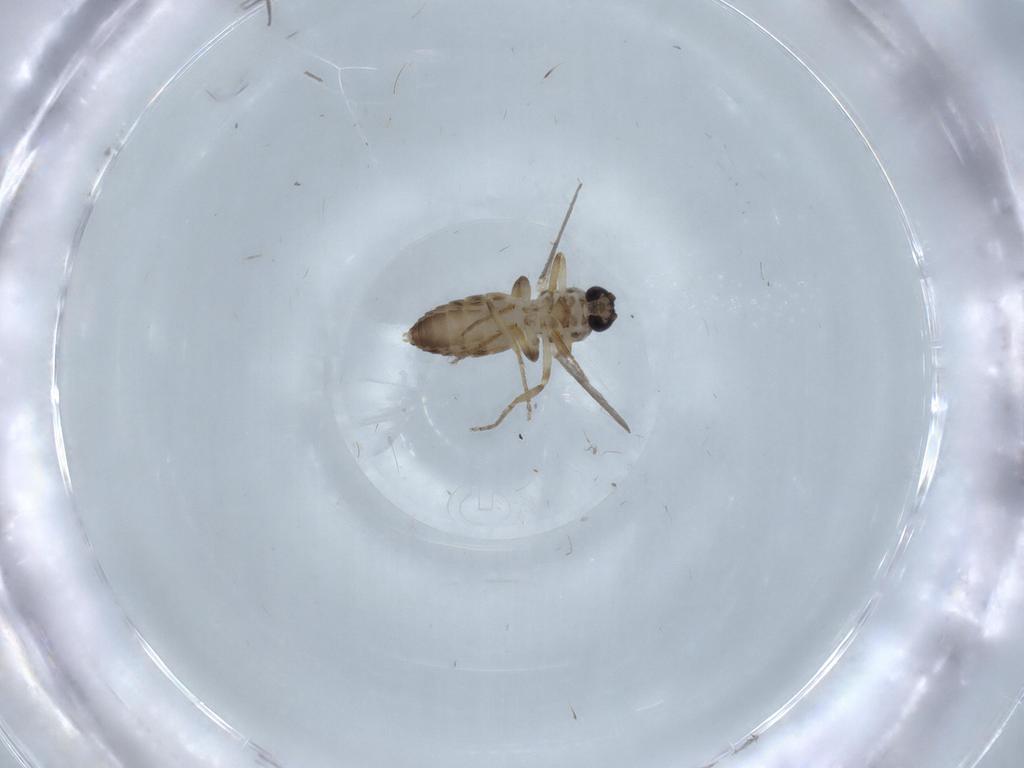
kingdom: Animalia
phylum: Arthropoda
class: Insecta
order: Diptera
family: Ceratopogonidae
